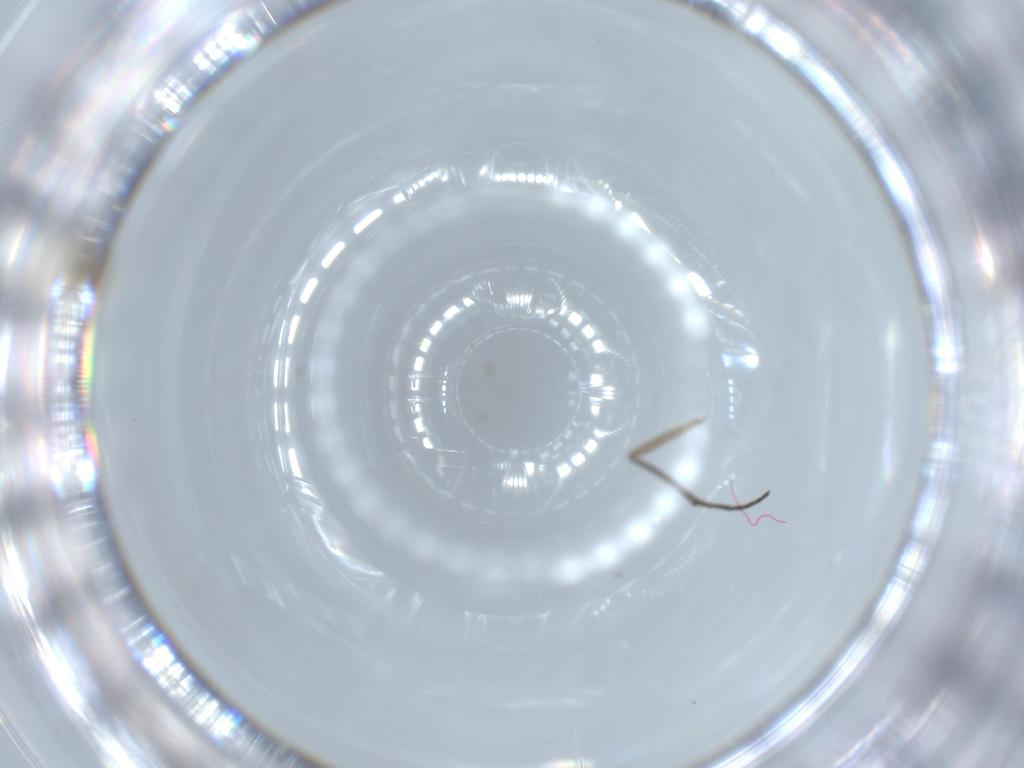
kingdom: Animalia
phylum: Arthropoda
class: Insecta
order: Diptera
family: Sciaridae
